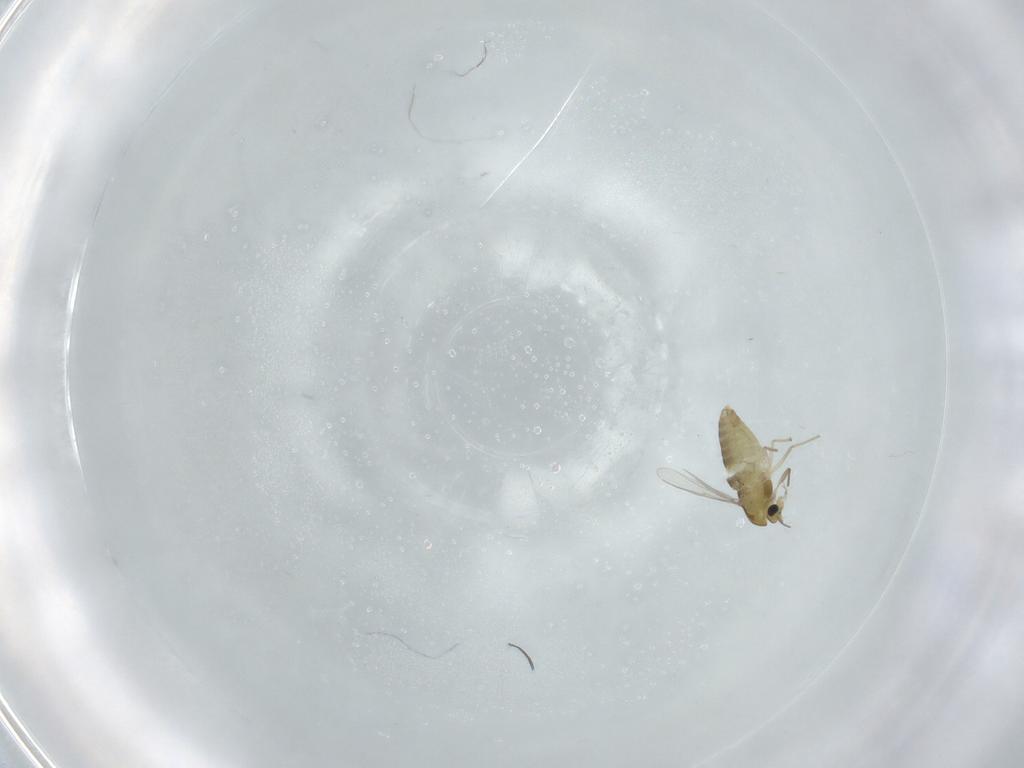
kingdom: Animalia
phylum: Arthropoda
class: Insecta
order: Diptera
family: Chironomidae
